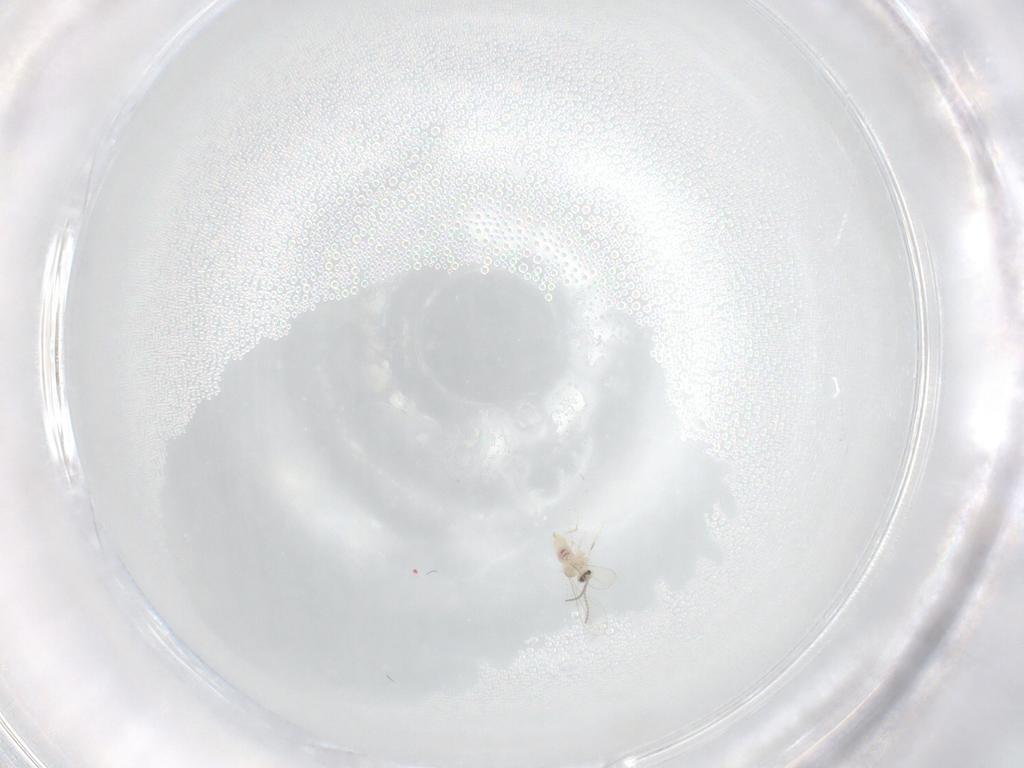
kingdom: Animalia
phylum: Arthropoda
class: Insecta
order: Diptera
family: Cecidomyiidae
